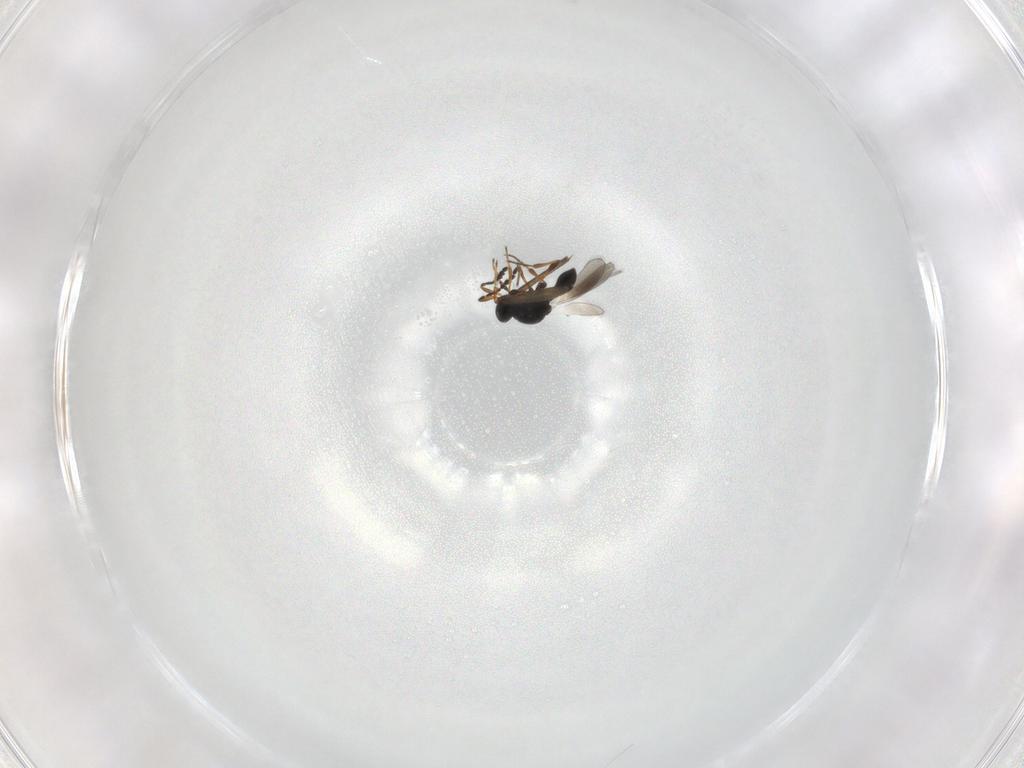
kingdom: Animalia
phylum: Arthropoda
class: Insecta
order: Hymenoptera
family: Platygastridae
